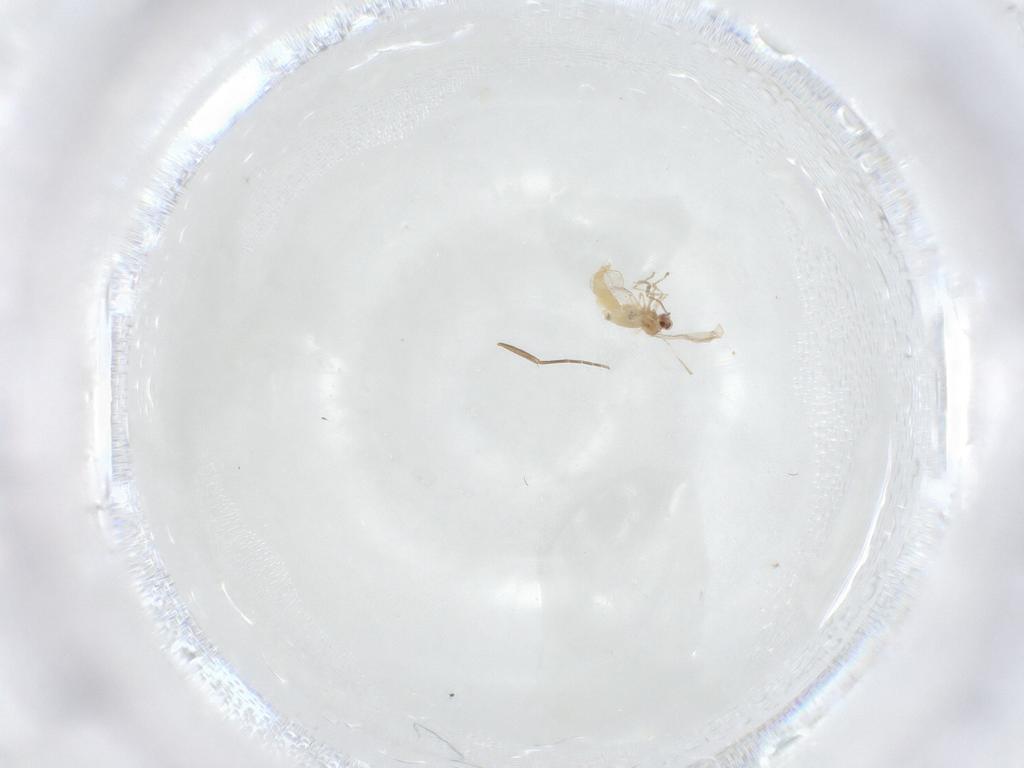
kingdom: Animalia
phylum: Arthropoda
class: Insecta
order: Diptera
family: Cecidomyiidae
